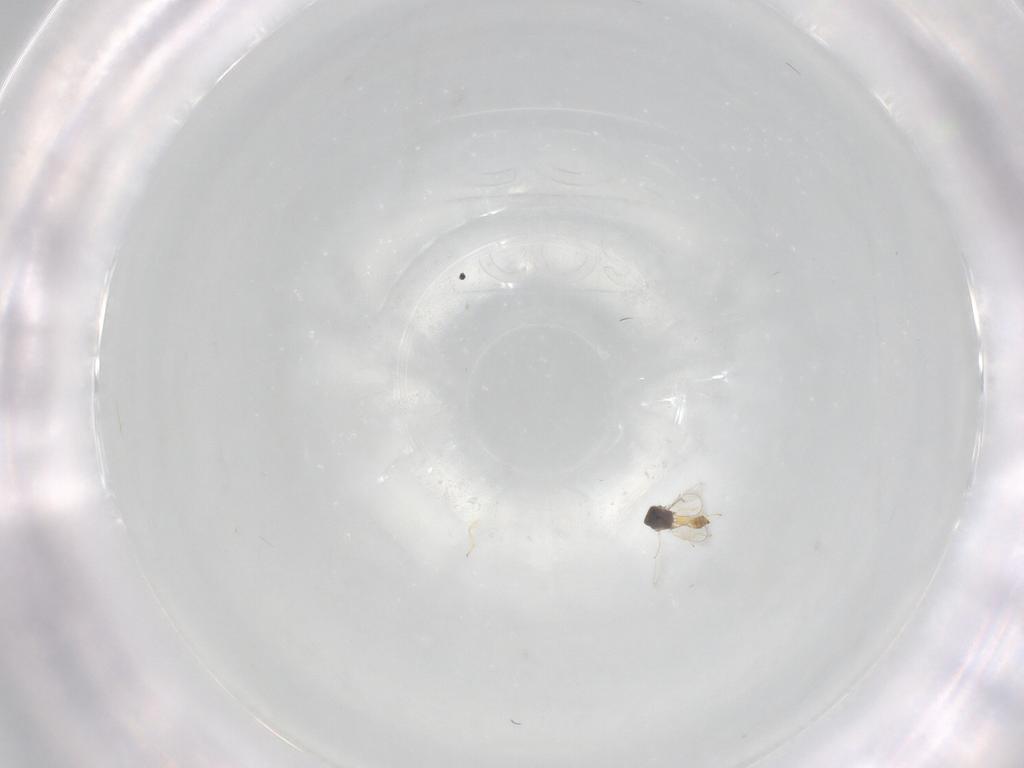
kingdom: Animalia
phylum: Arthropoda
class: Insecta
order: Hymenoptera
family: Eulophidae
